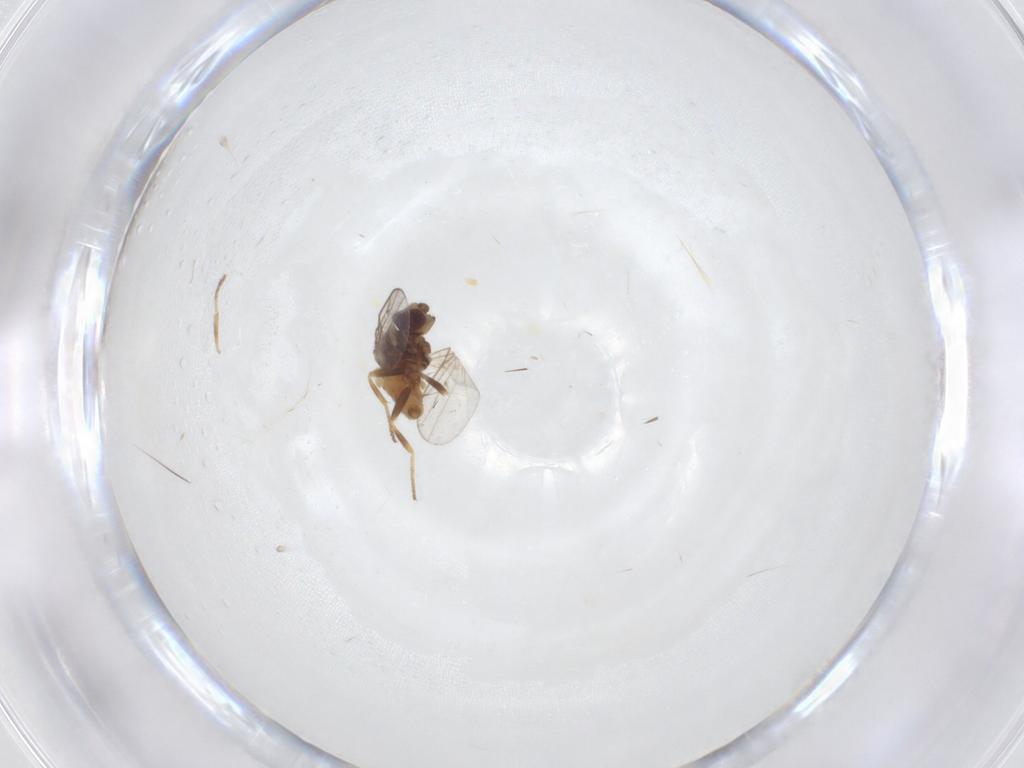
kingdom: Animalia
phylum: Arthropoda
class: Insecta
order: Diptera
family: Chloropidae
